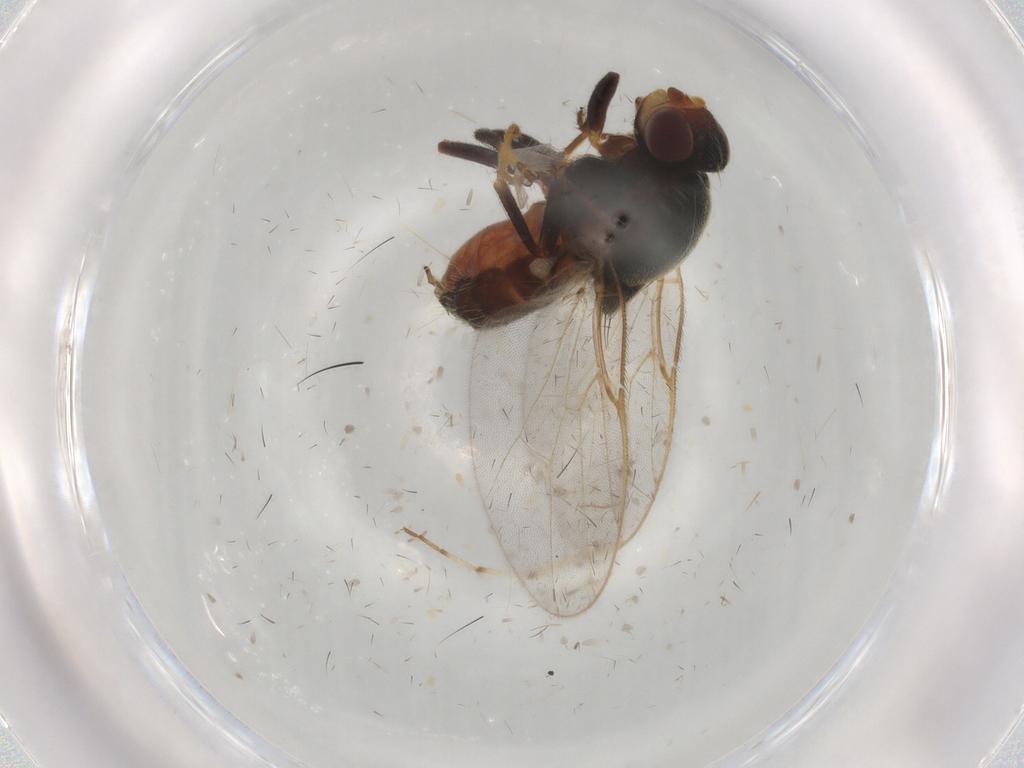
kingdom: Animalia
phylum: Arthropoda
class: Insecta
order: Diptera
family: Chloropidae
